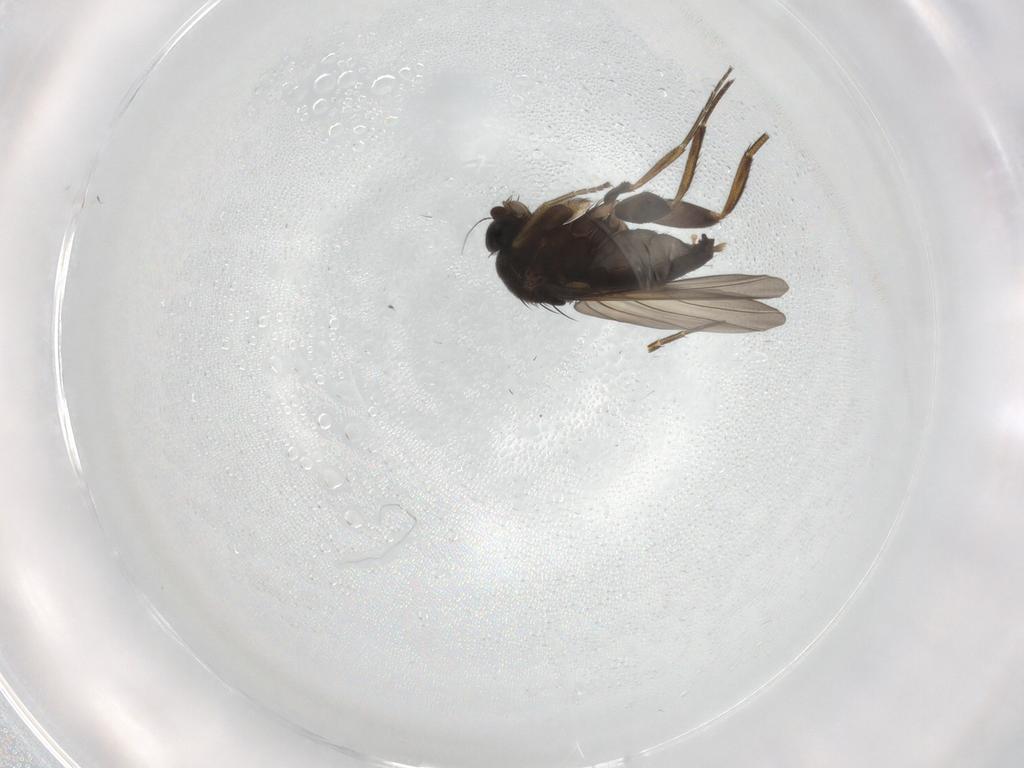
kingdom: Animalia
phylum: Arthropoda
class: Insecta
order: Diptera
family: Phoridae
